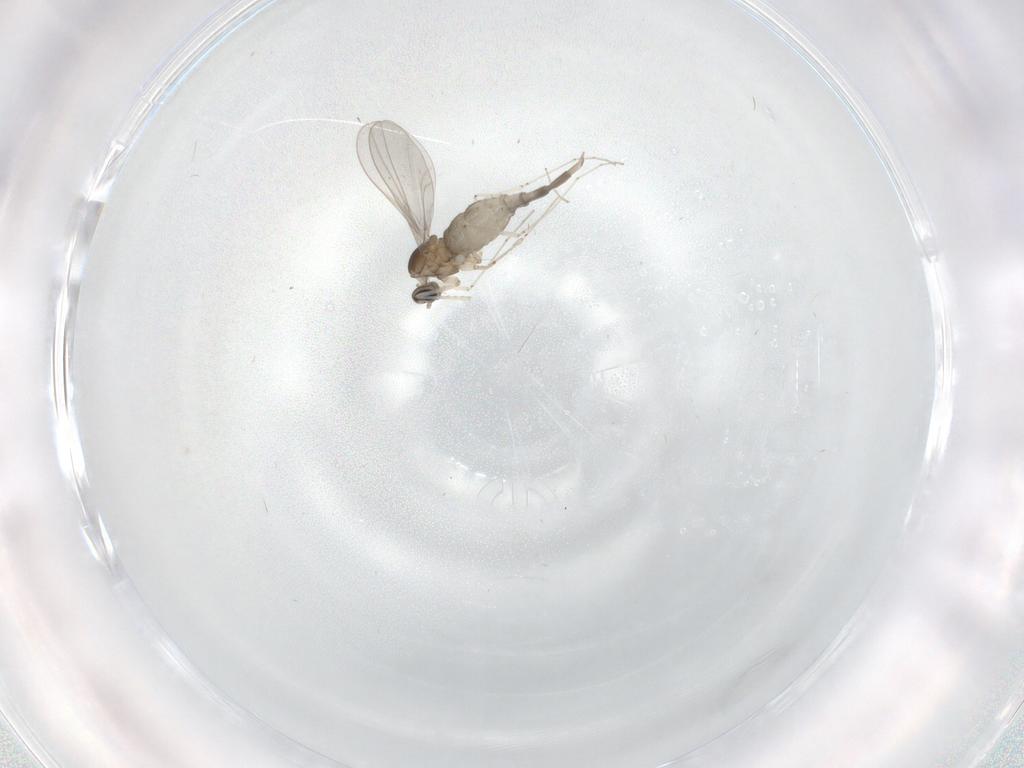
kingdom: Animalia
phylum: Arthropoda
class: Insecta
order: Diptera
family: Cecidomyiidae
